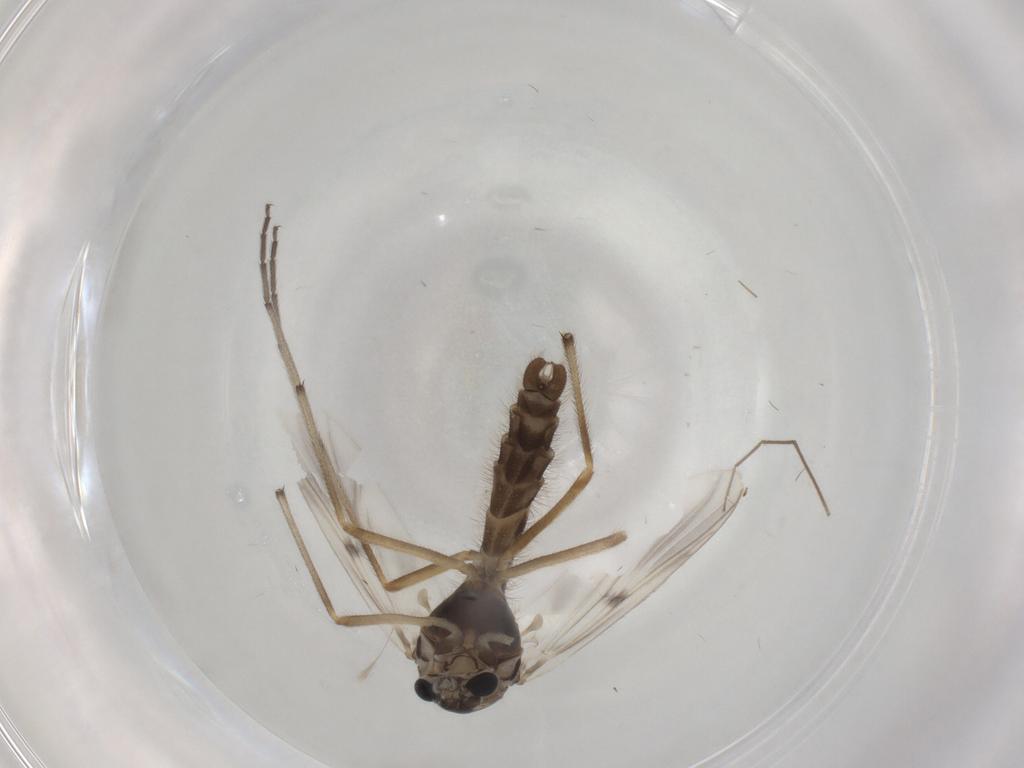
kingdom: Animalia
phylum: Arthropoda
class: Insecta
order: Diptera
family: Chironomidae
